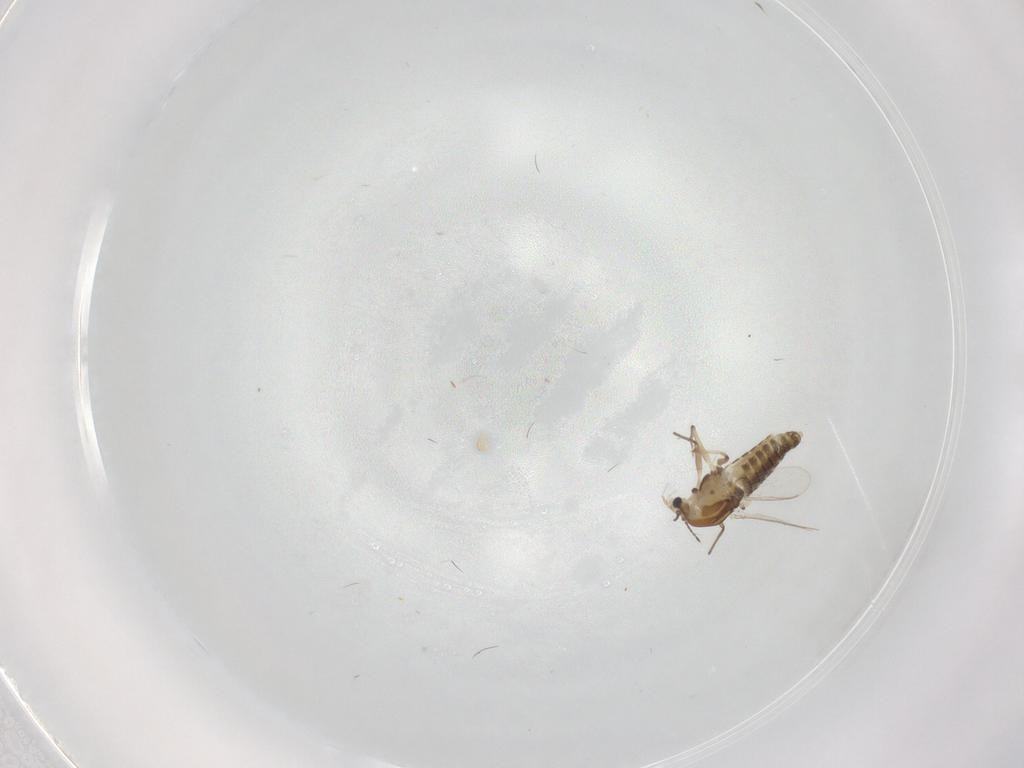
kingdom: Animalia
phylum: Arthropoda
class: Insecta
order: Diptera
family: Chironomidae
